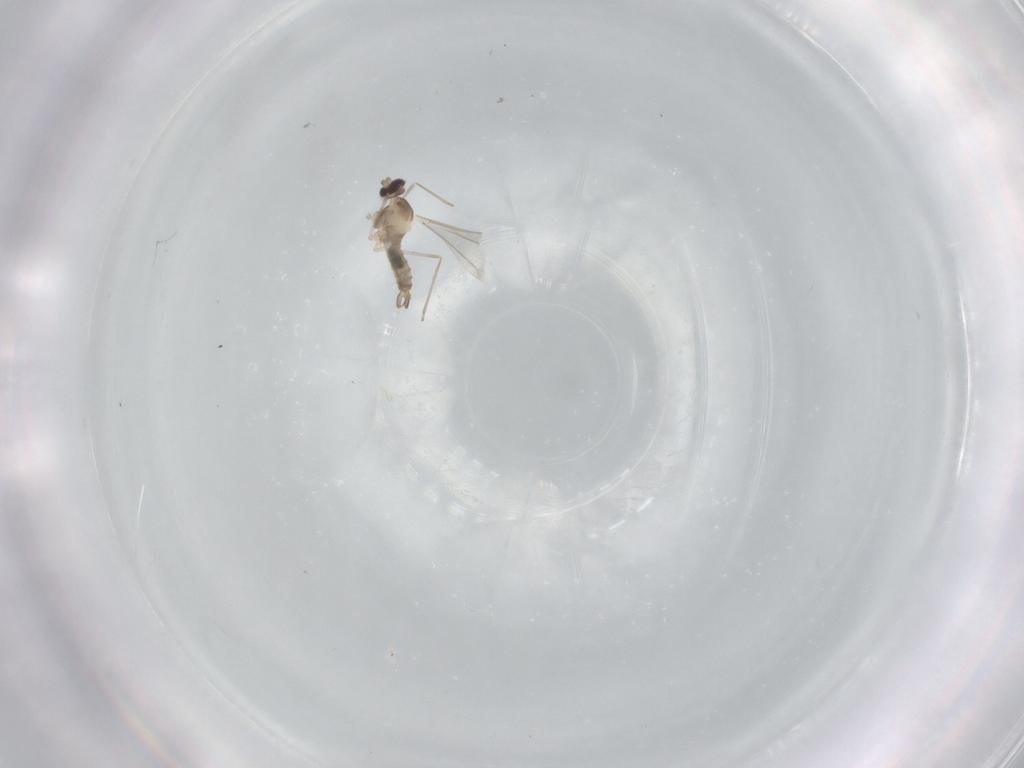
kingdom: Animalia
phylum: Arthropoda
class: Insecta
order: Diptera
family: Cecidomyiidae
